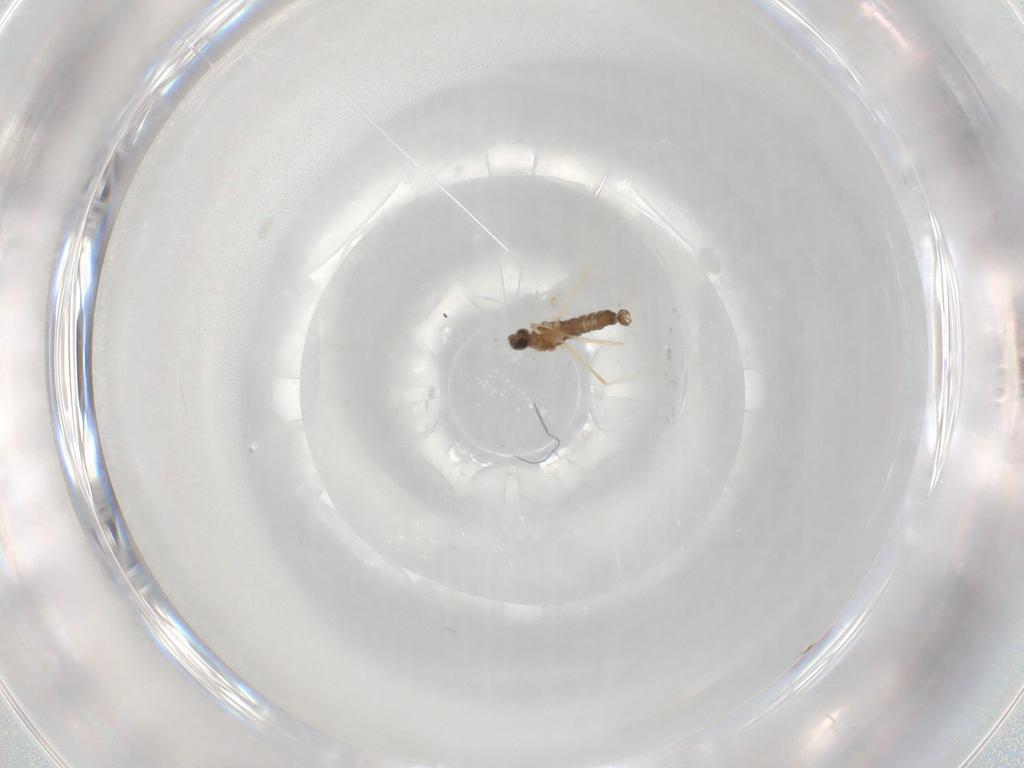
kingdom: Animalia
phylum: Arthropoda
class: Insecta
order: Diptera
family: Cecidomyiidae
